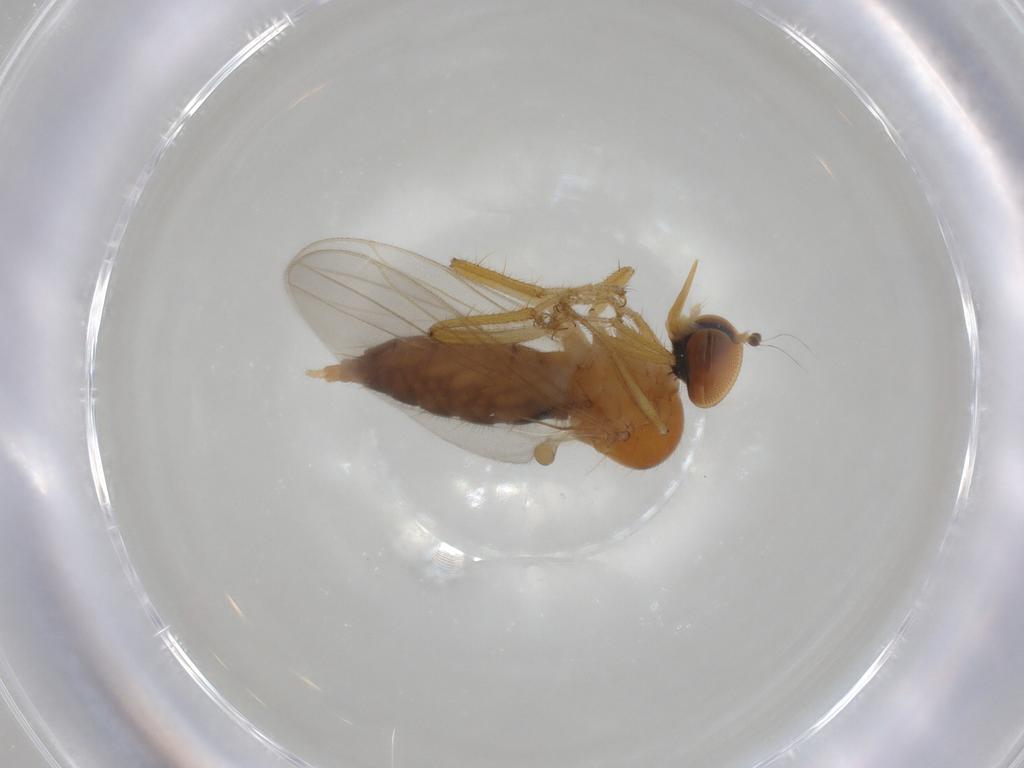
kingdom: Animalia
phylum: Arthropoda
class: Insecta
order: Diptera
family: Hybotidae
